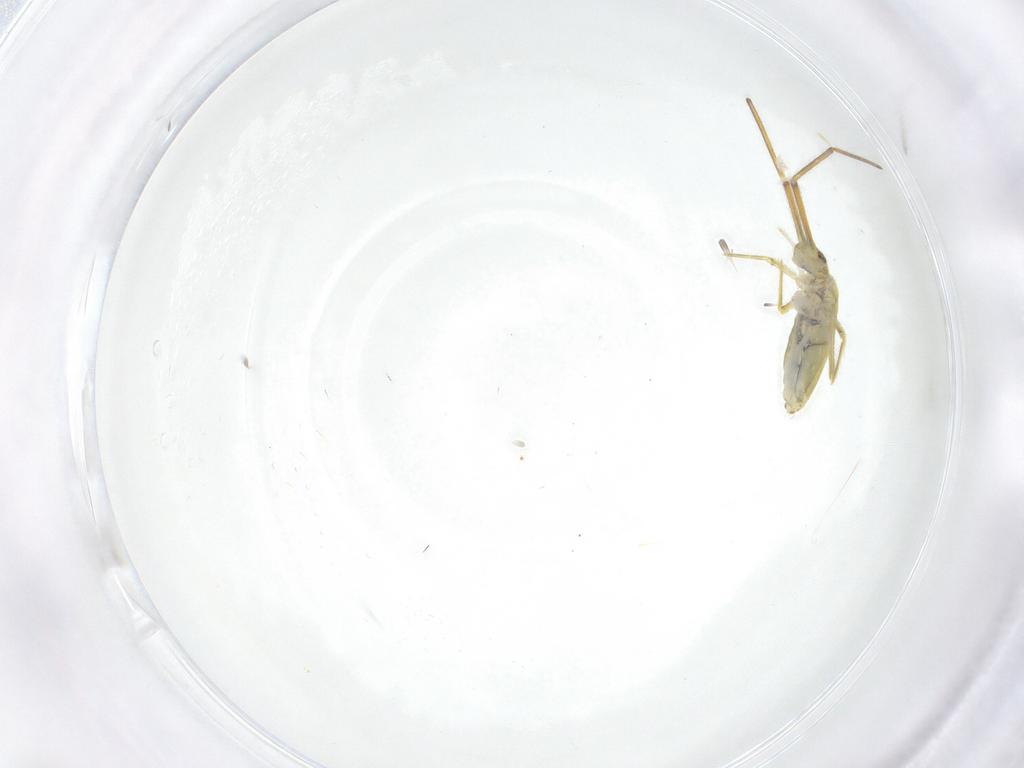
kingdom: Animalia
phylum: Arthropoda
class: Collembola
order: Entomobryomorpha
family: Entomobryidae
